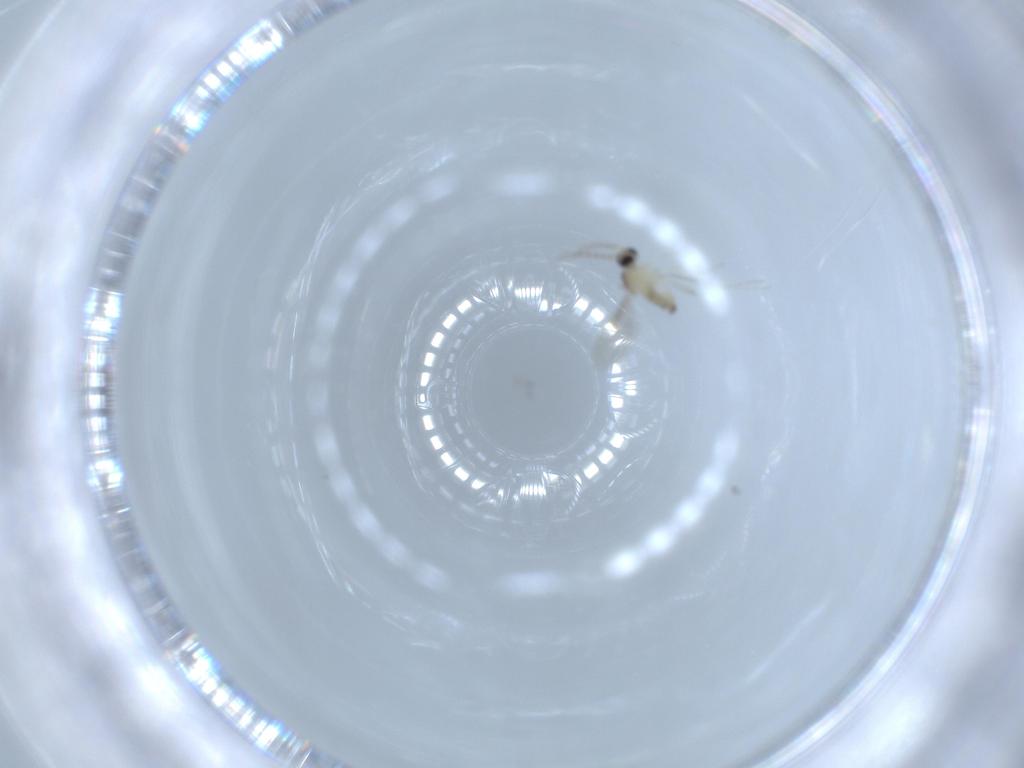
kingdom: Animalia
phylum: Arthropoda
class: Insecta
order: Diptera
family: Cecidomyiidae
